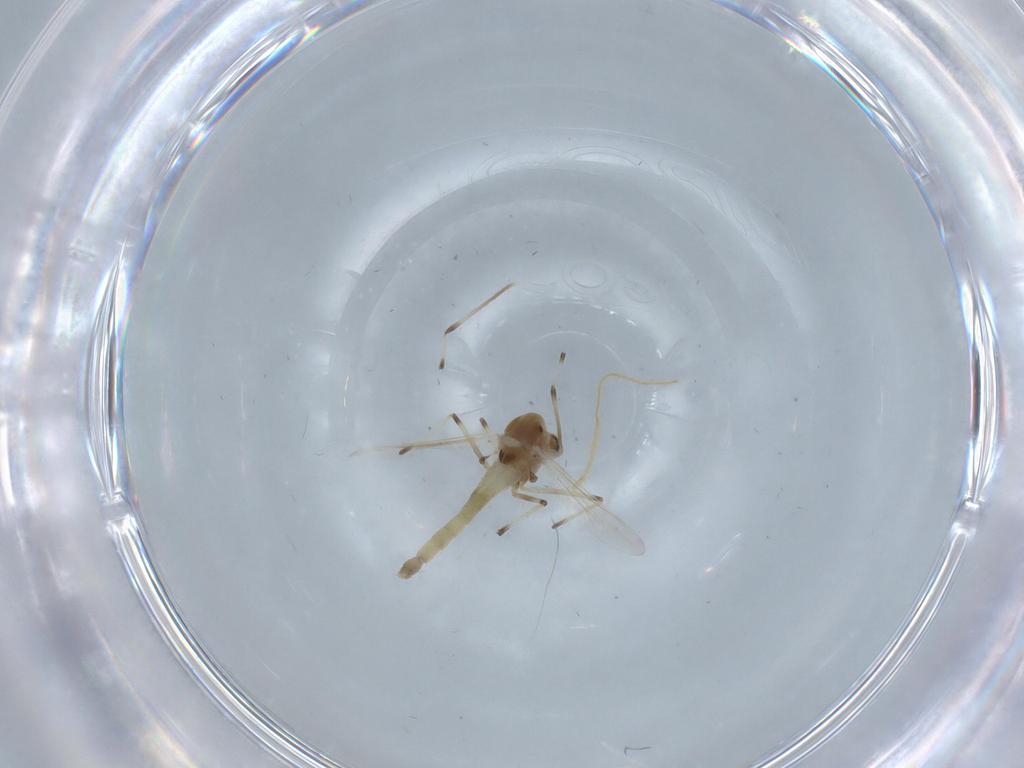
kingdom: Animalia
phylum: Arthropoda
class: Insecta
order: Diptera
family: Chironomidae
